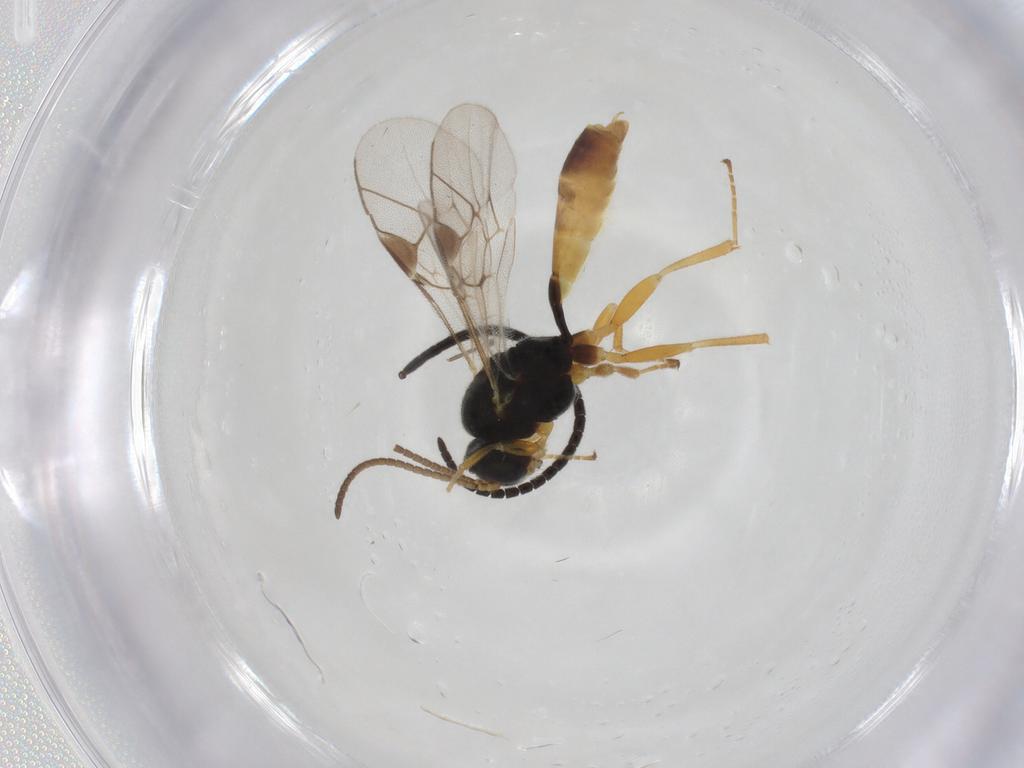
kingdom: Animalia
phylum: Arthropoda
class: Insecta
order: Hymenoptera
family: Ichneumonidae
